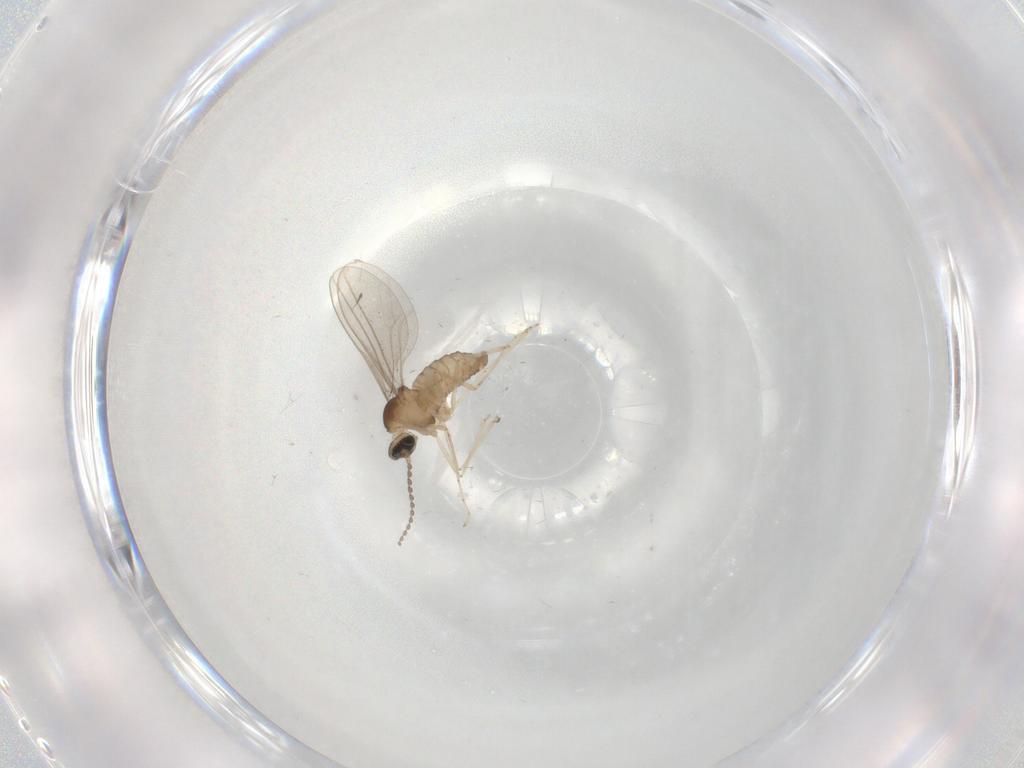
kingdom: Animalia
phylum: Arthropoda
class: Insecta
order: Diptera
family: Cecidomyiidae
